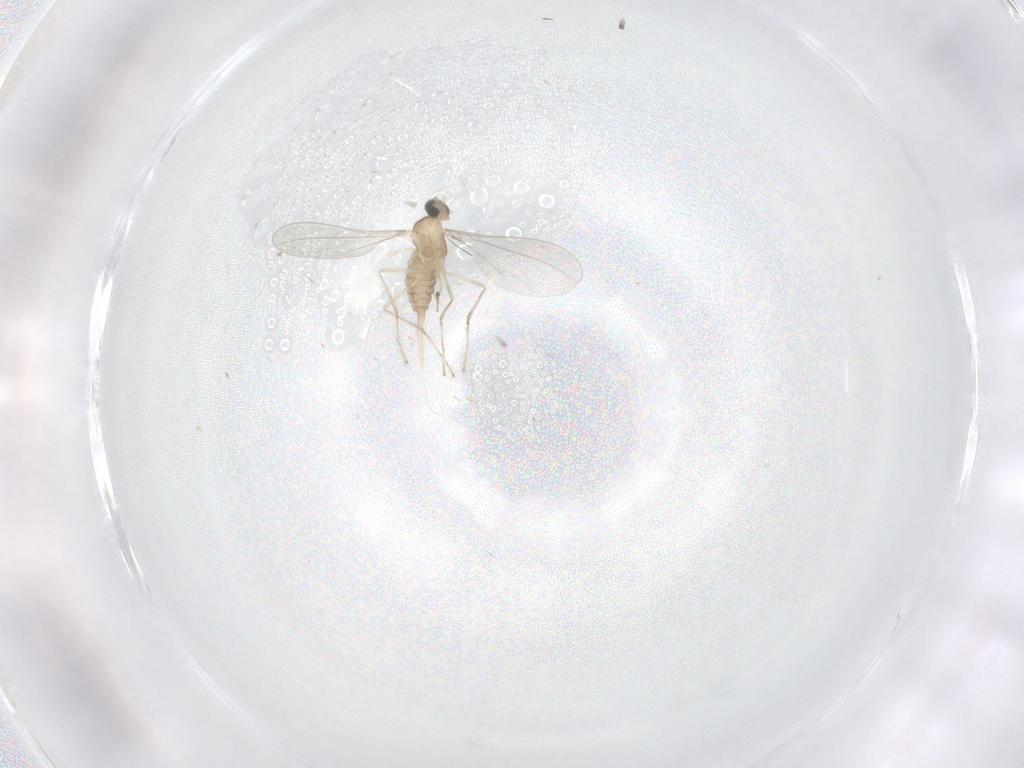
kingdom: Animalia
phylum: Arthropoda
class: Insecta
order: Diptera
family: Cecidomyiidae
